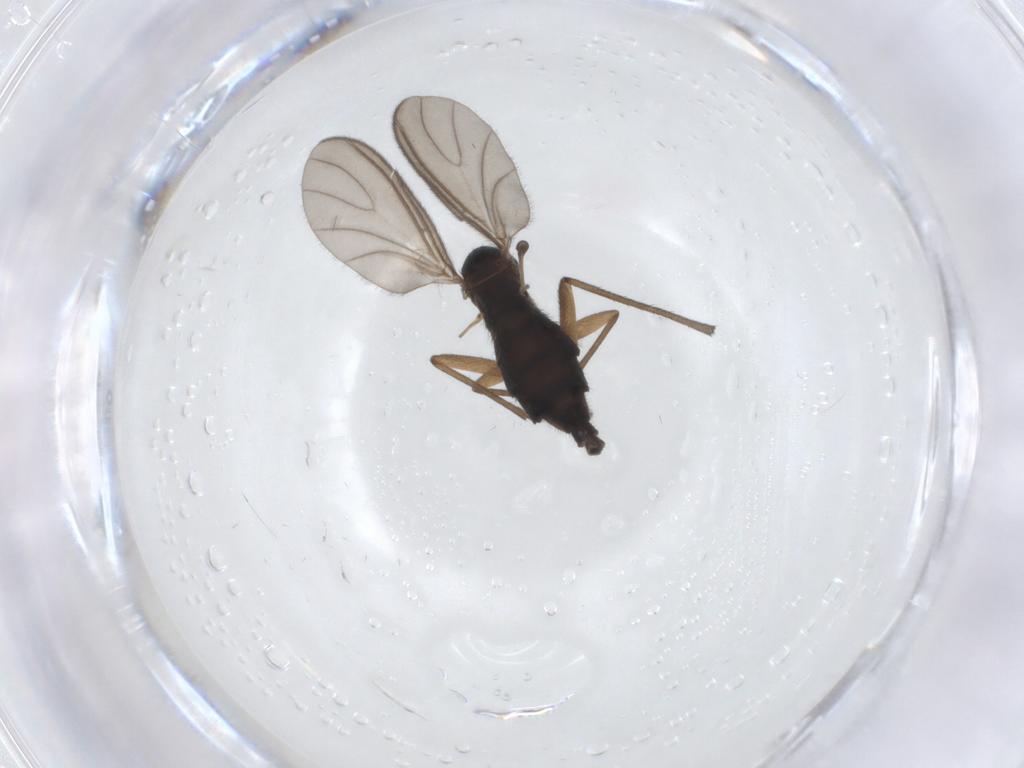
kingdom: Animalia
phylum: Arthropoda
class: Insecta
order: Diptera
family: Sciaridae
